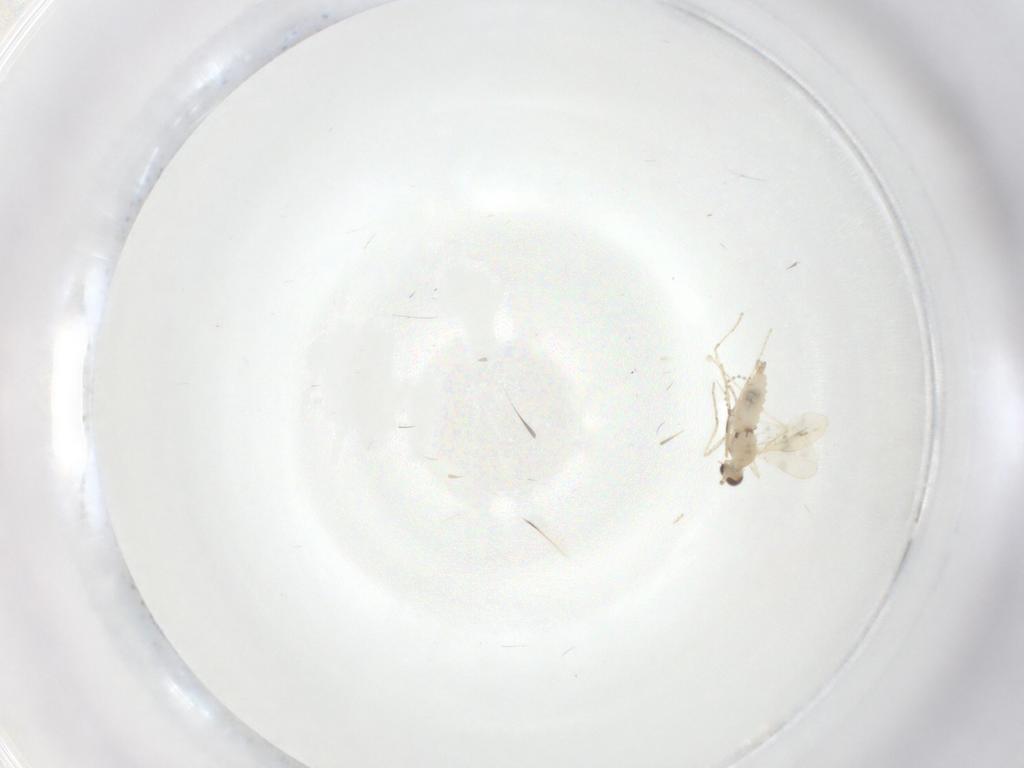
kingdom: Animalia
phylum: Arthropoda
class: Insecta
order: Diptera
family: Cecidomyiidae
